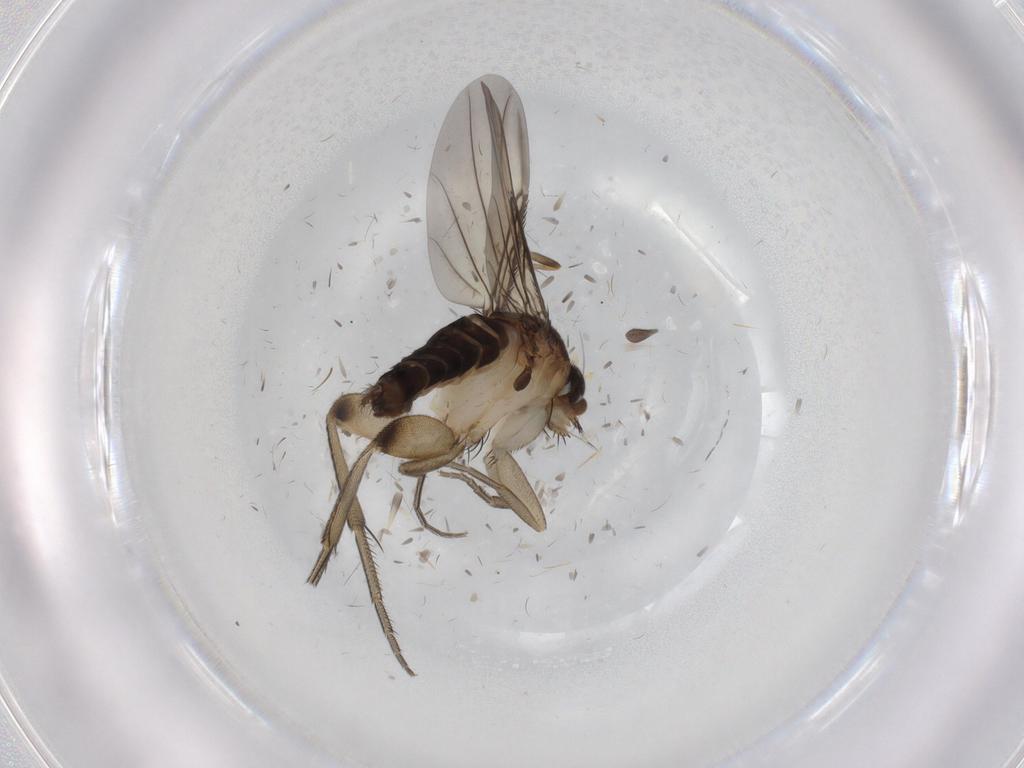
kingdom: Animalia
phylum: Arthropoda
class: Insecta
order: Diptera
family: Phoridae
